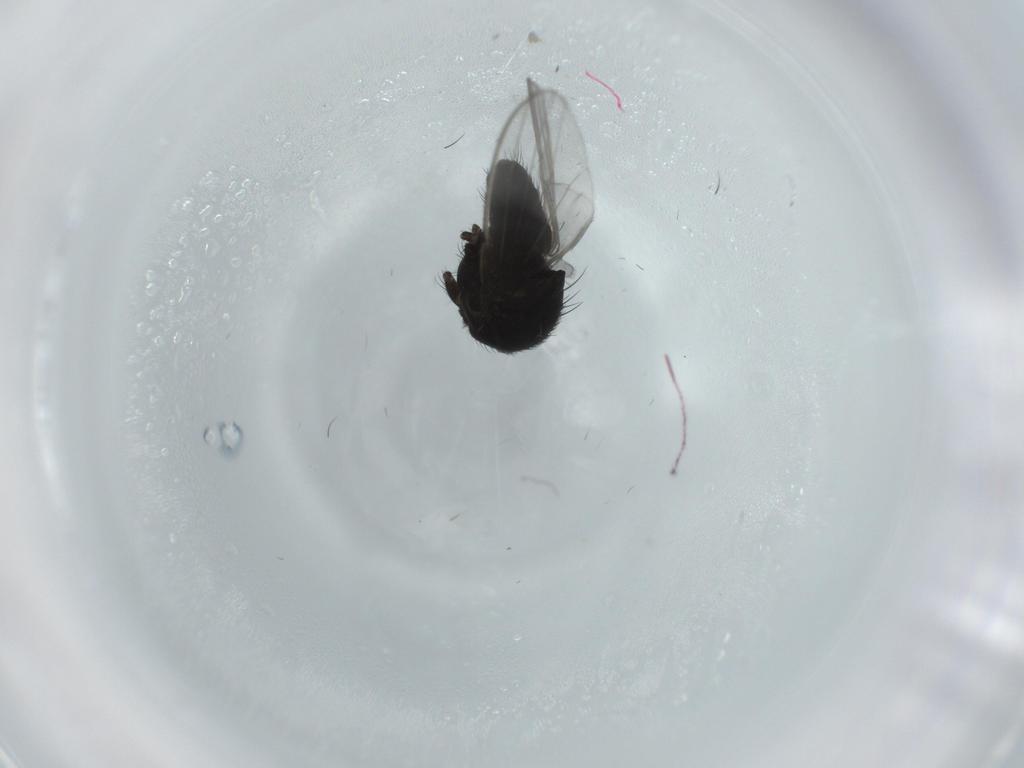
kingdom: Animalia
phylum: Arthropoda
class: Insecta
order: Diptera
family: Milichiidae
